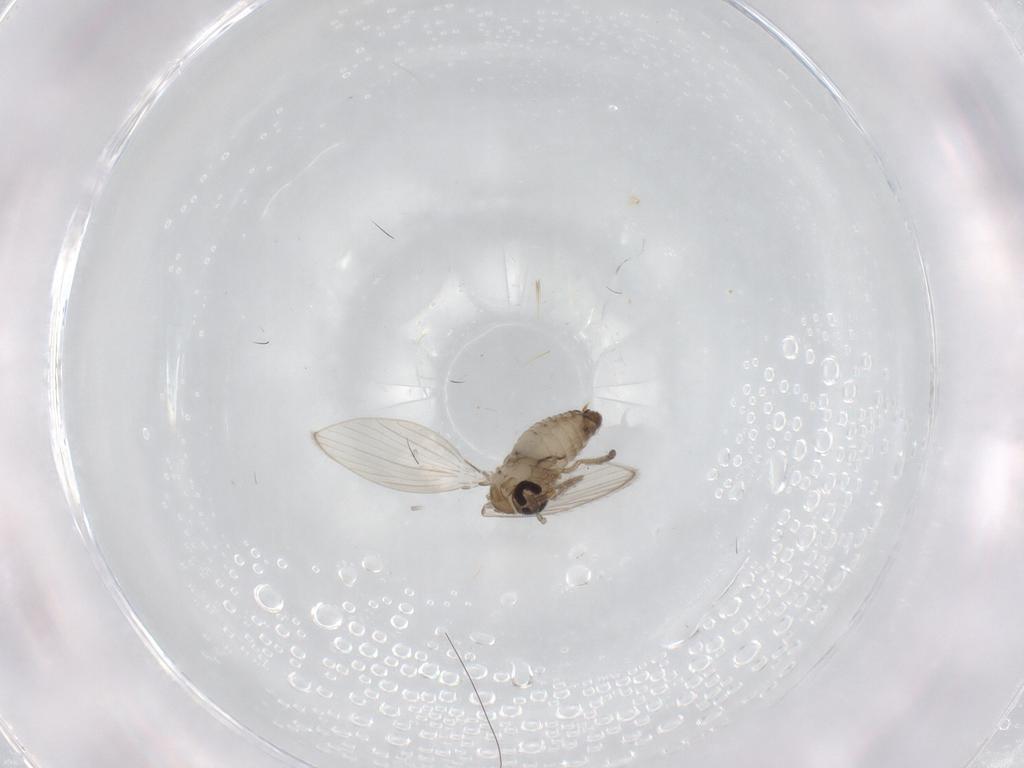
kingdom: Animalia
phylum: Arthropoda
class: Insecta
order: Diptera
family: Psychodidae
